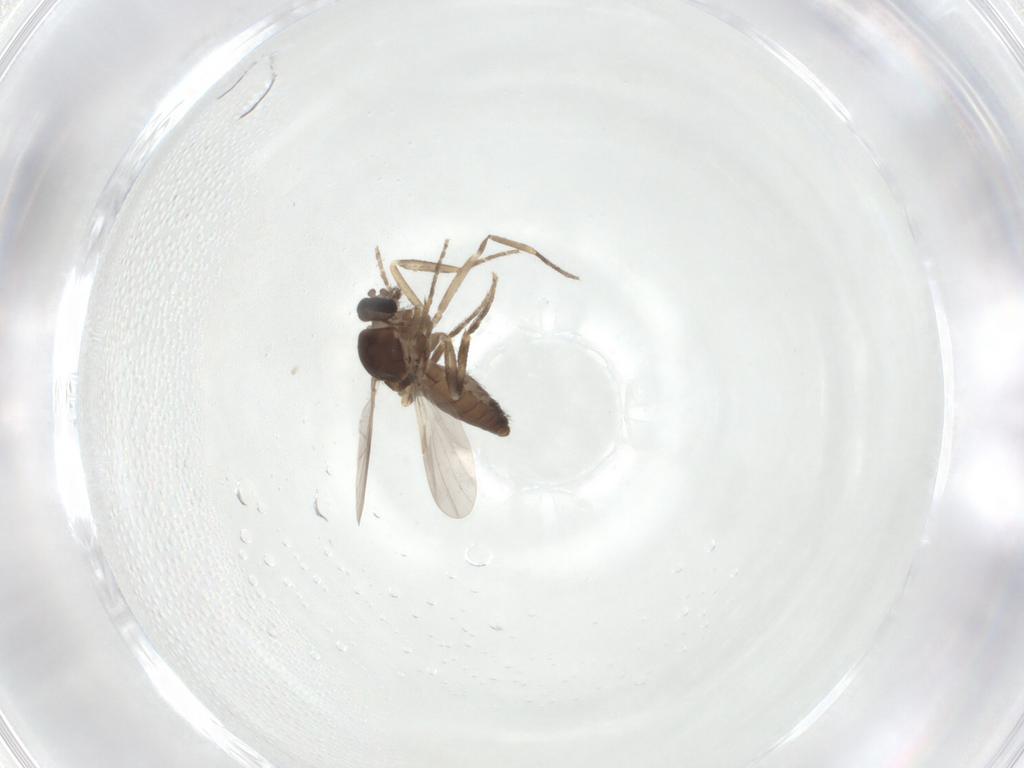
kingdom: Animalia
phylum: Arthropoda
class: Insecta
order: Diptera
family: Ceratopogonidae
